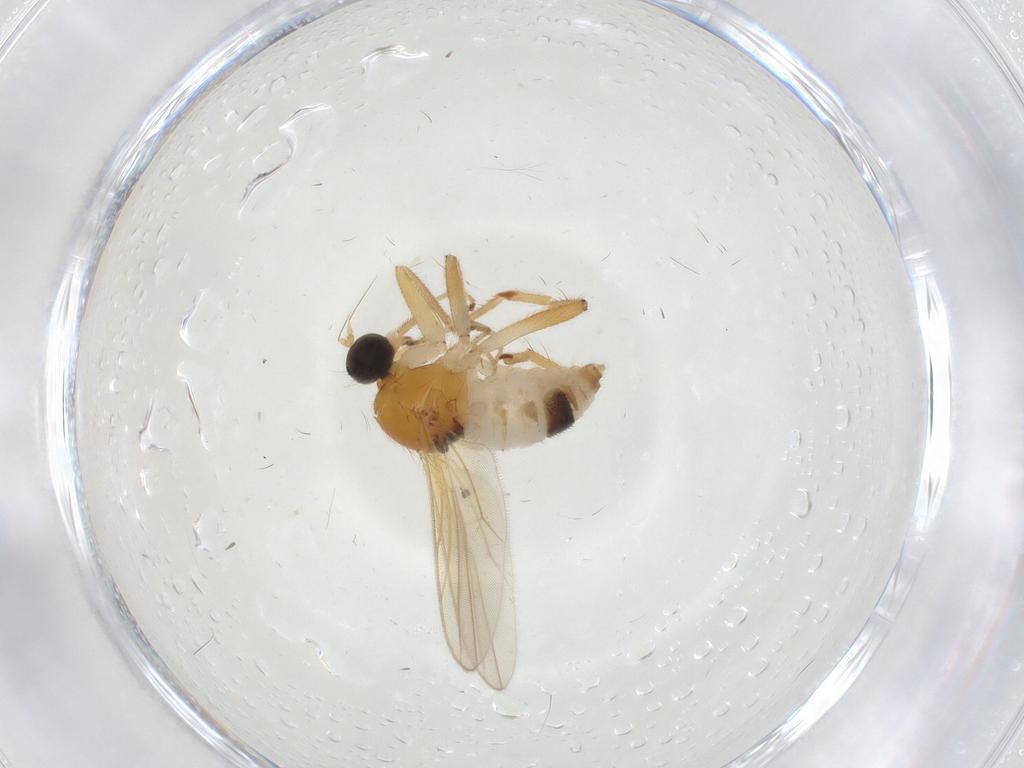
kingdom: Animalia
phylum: Arthropoda
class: Insecta
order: Diptera
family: Hybotidae
